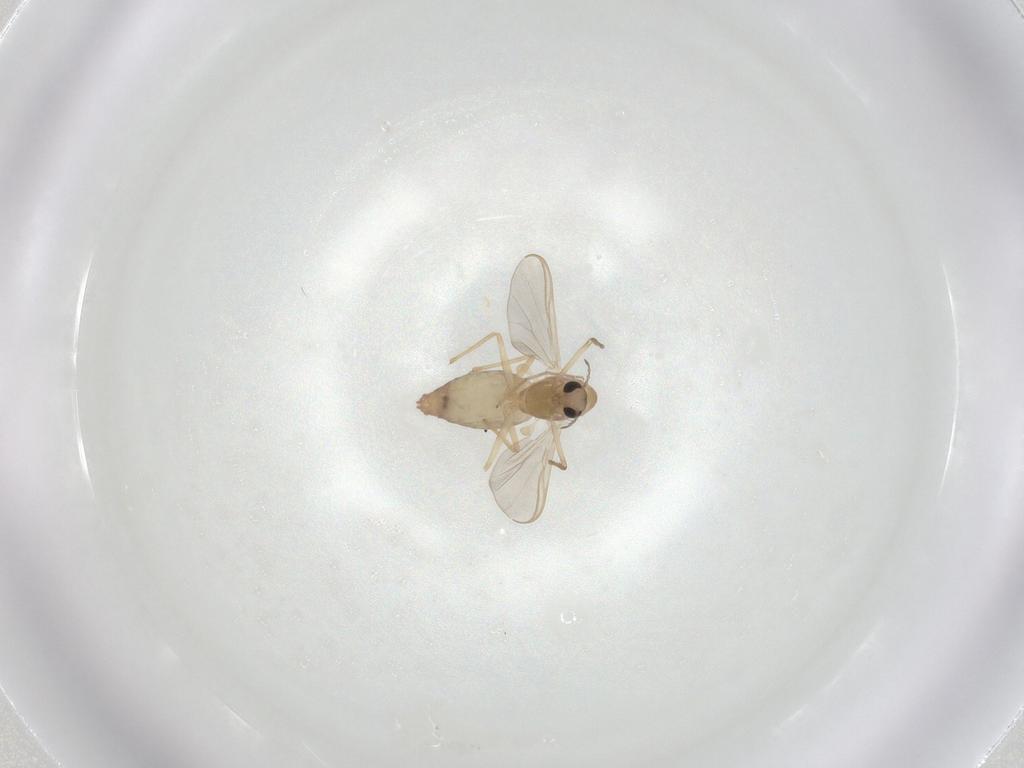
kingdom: Animalia
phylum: Arthropoda
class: Insecta
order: Diptera
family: Chironomidae
